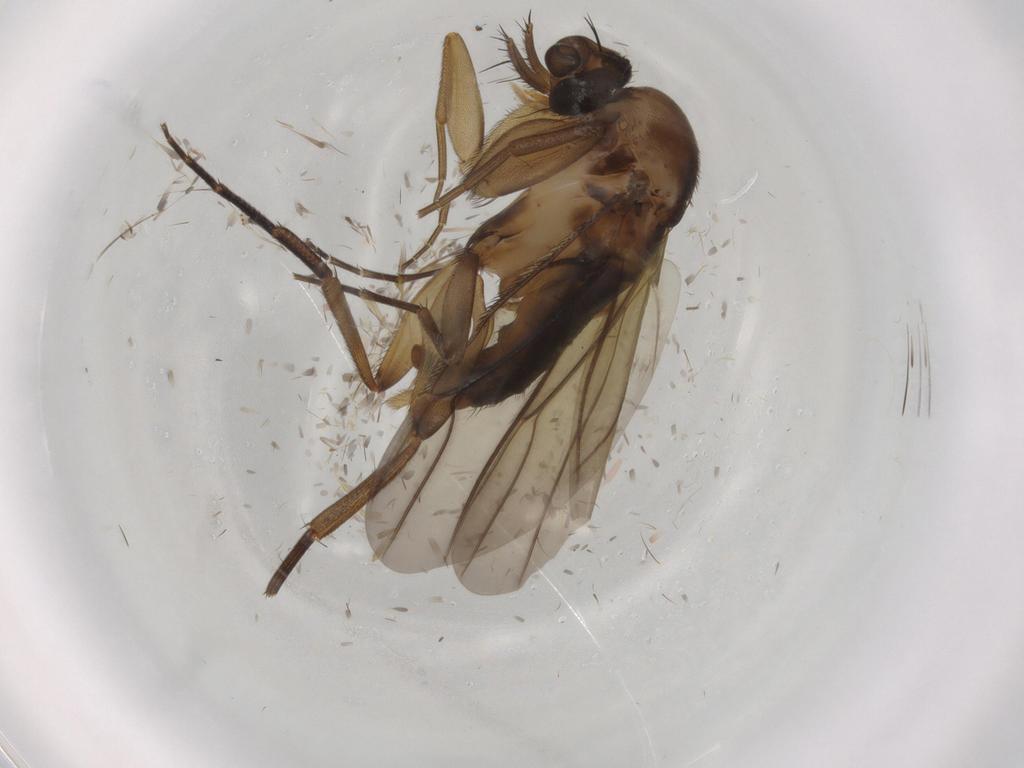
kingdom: Animalia
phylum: Arthropoda
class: Insecta
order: Diptera
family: Phoridae
